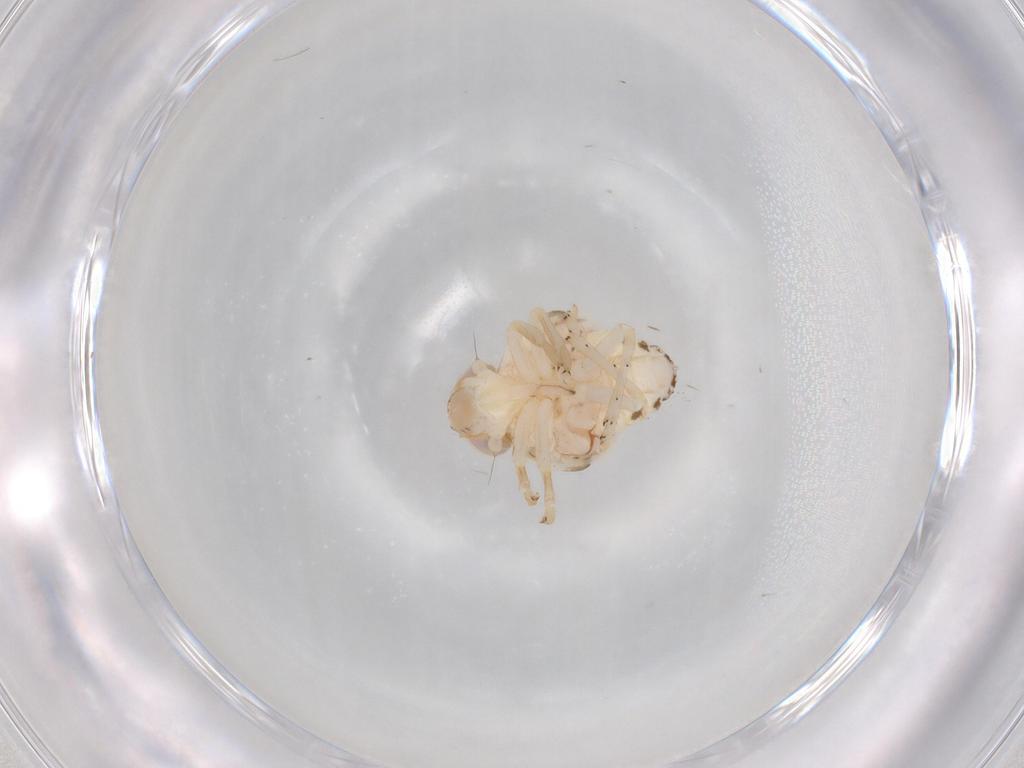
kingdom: Animalia
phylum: Arthropoda
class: Insecta
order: Hemiptera
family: Nogodinidae
